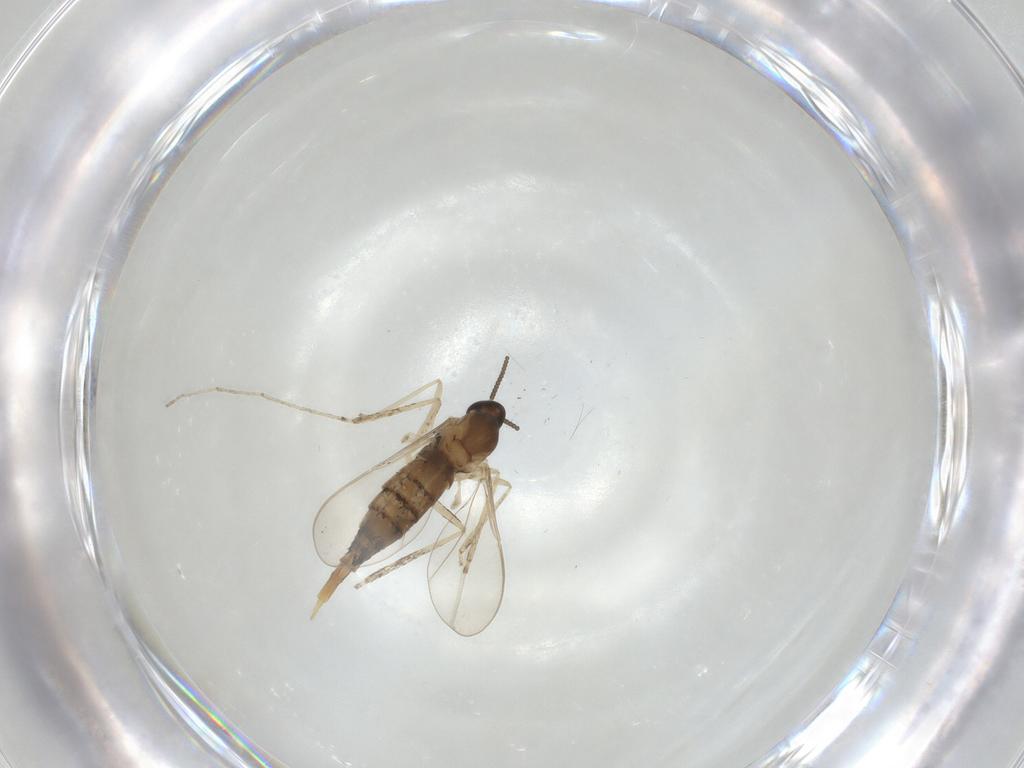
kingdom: Animalia
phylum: Arthropoda
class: Insecta
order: Diptera
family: Cecidomyiidae
